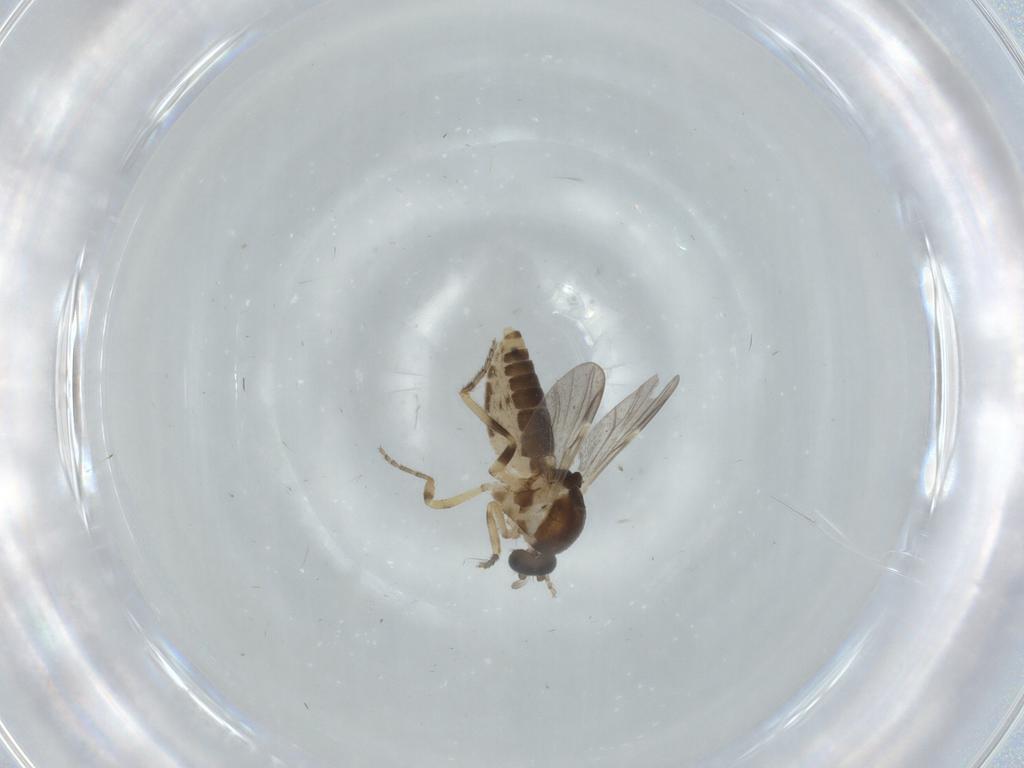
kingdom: Animalia
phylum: Arthropoda
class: Insecta
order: Diptera
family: Ceratopogonidae
